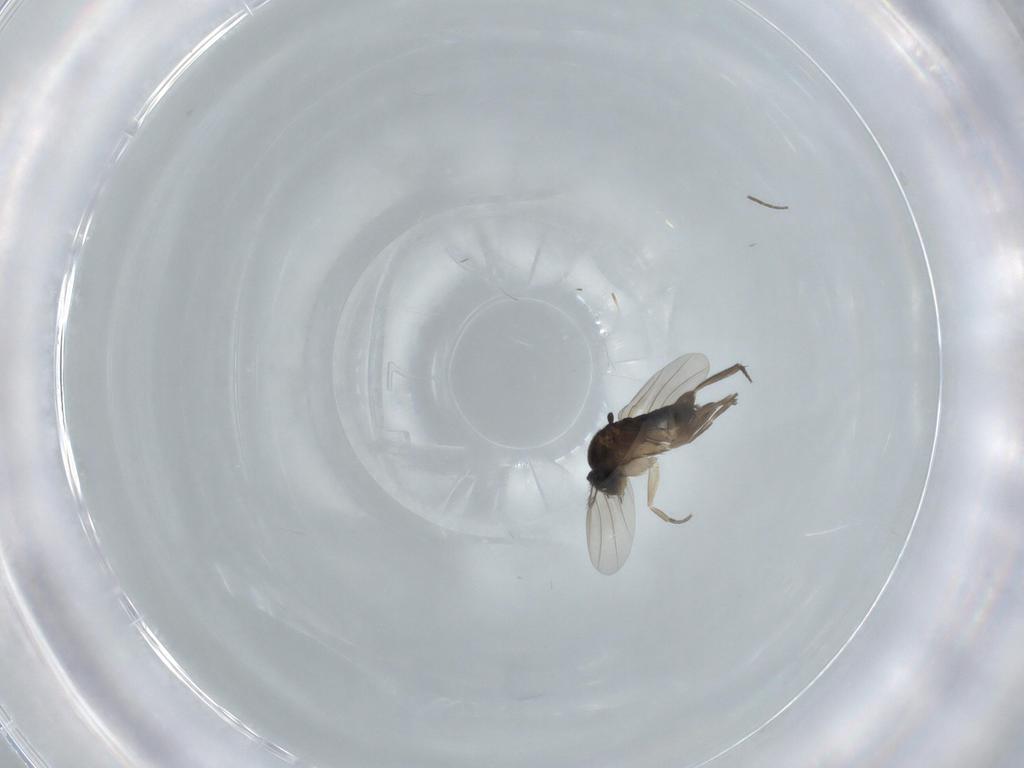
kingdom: Animalia
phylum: Arthropoda
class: Insecta
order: Diptera
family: Phoridae
